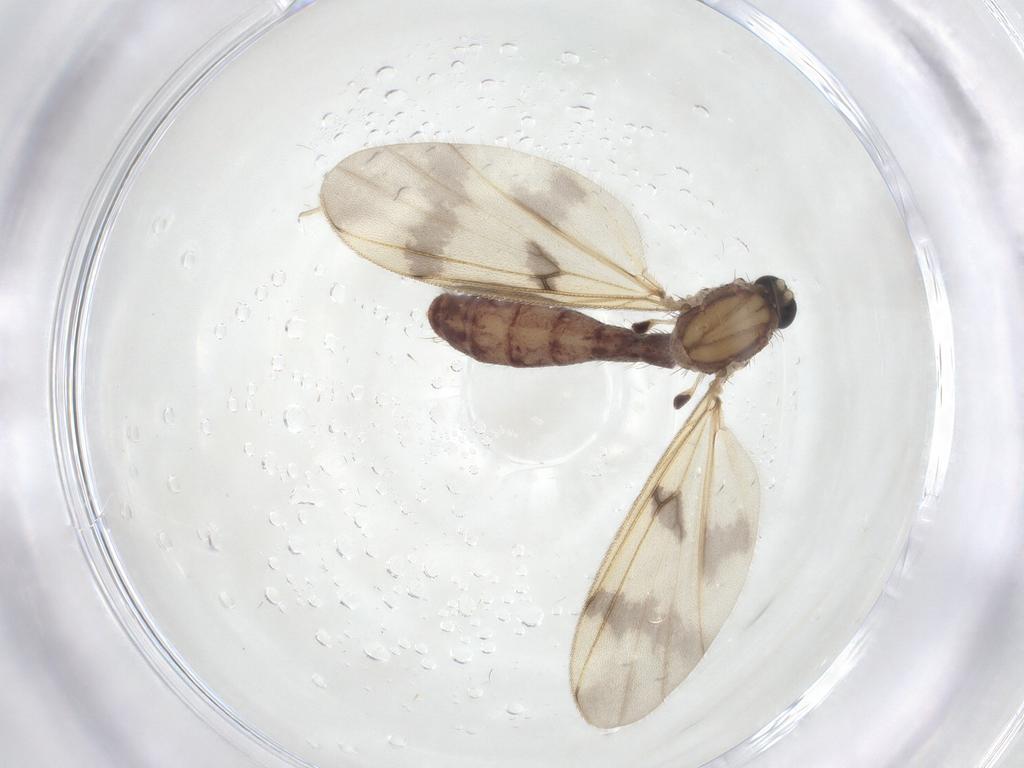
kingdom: Animalia
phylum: Arthropoda
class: Insecta
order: Diptera
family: Mycetophilidae
